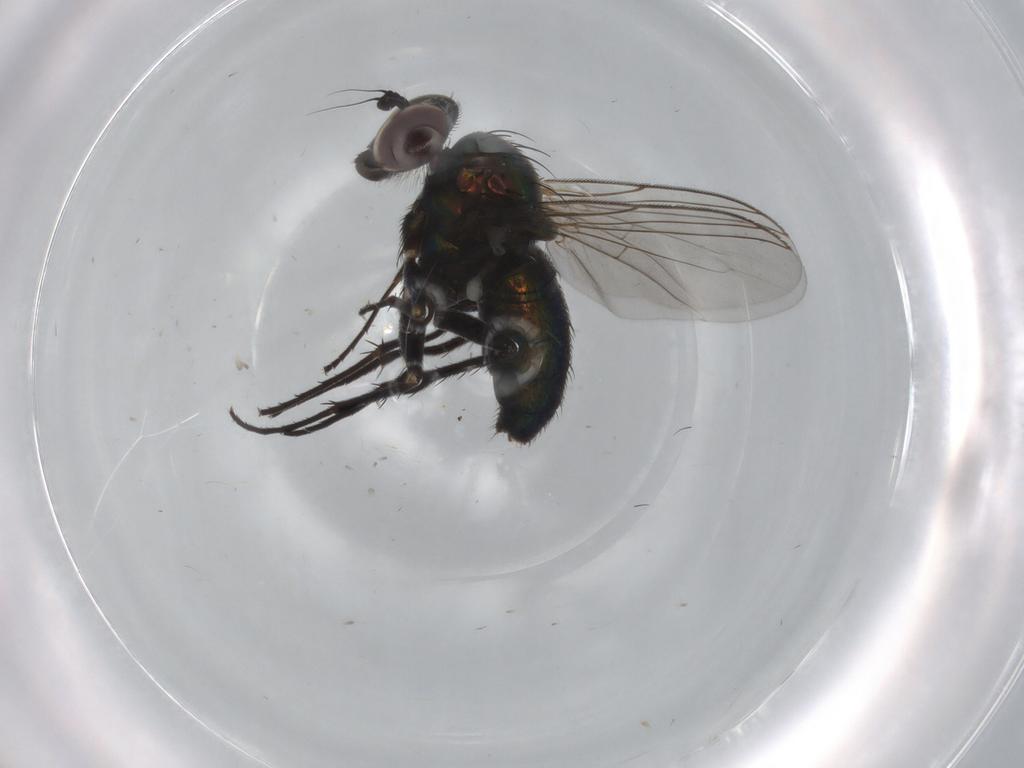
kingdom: Animalia
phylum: Arthropoda
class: Insecta
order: Diptera
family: Dolichopodidae
